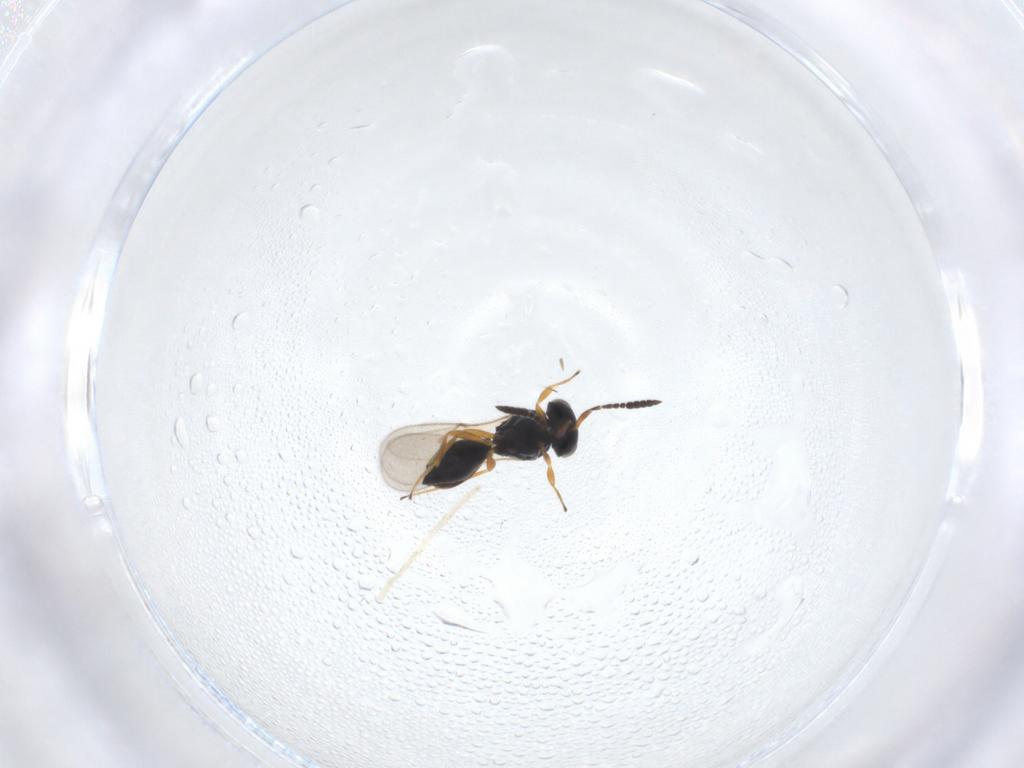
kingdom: Animalia
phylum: Arthropoda
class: Insecta
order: Hymenoptera
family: Scelionidae
